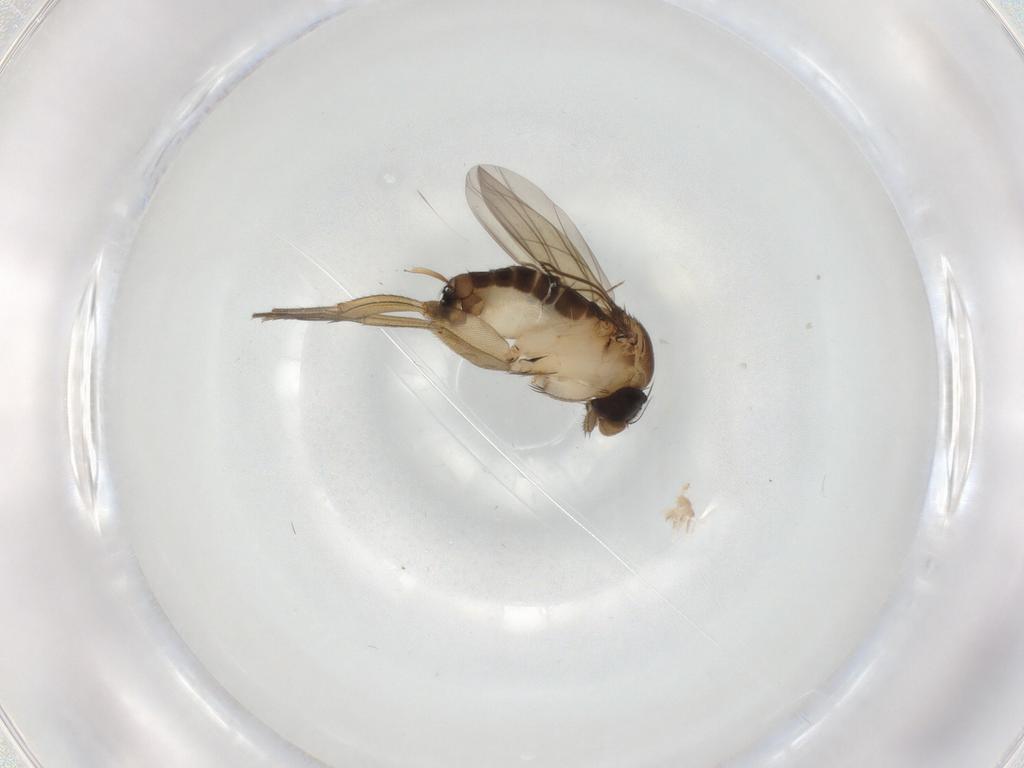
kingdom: Animalia
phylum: Arthropoda
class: Insecta
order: Diptera
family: Phoridae
